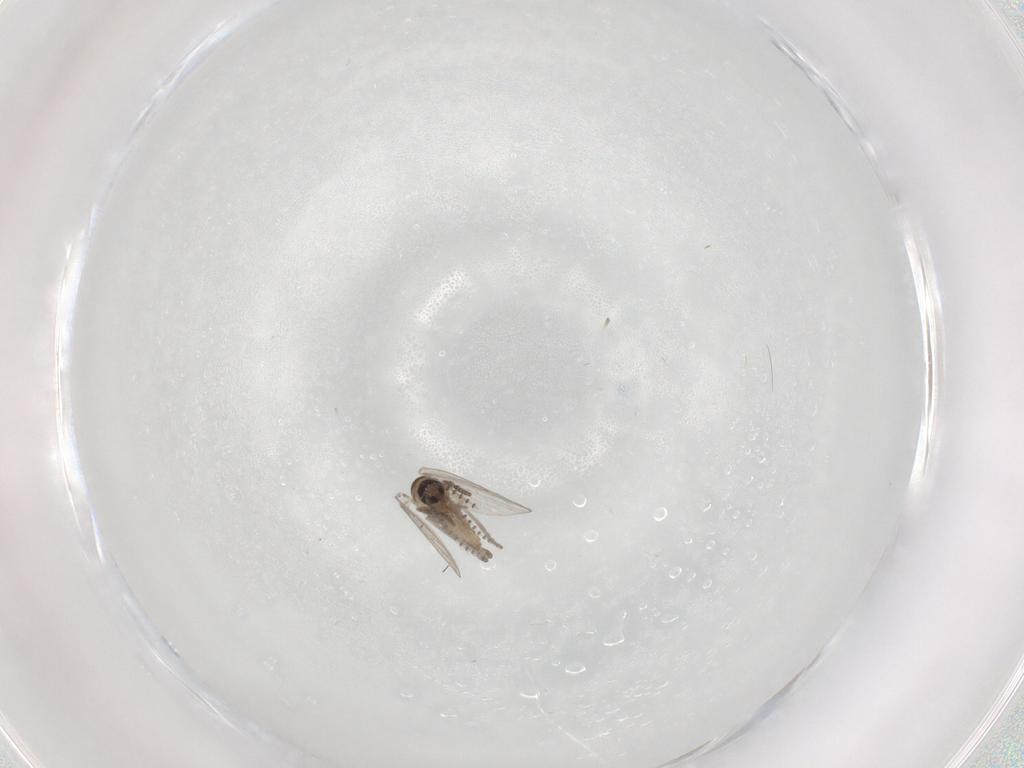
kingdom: Animalia
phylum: Arthropoda
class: Insecta
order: Diptera
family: Psychodidae
